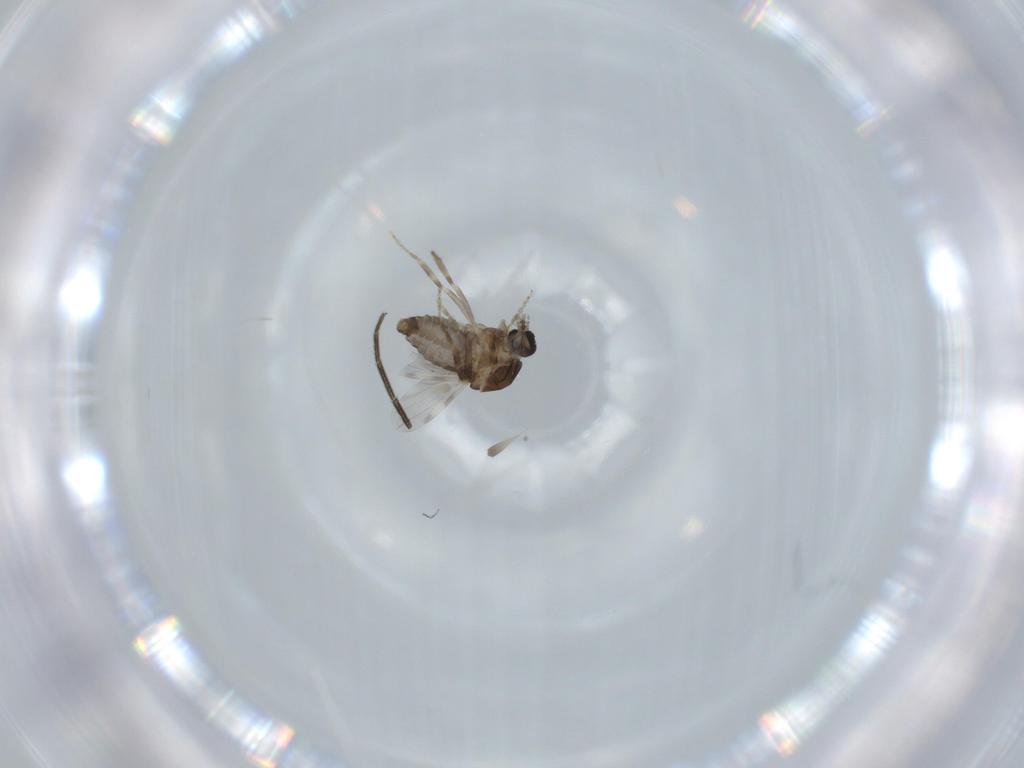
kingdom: Animalia
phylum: Arthropoda
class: Insecta
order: Diptera
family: Ceratopogonidae
